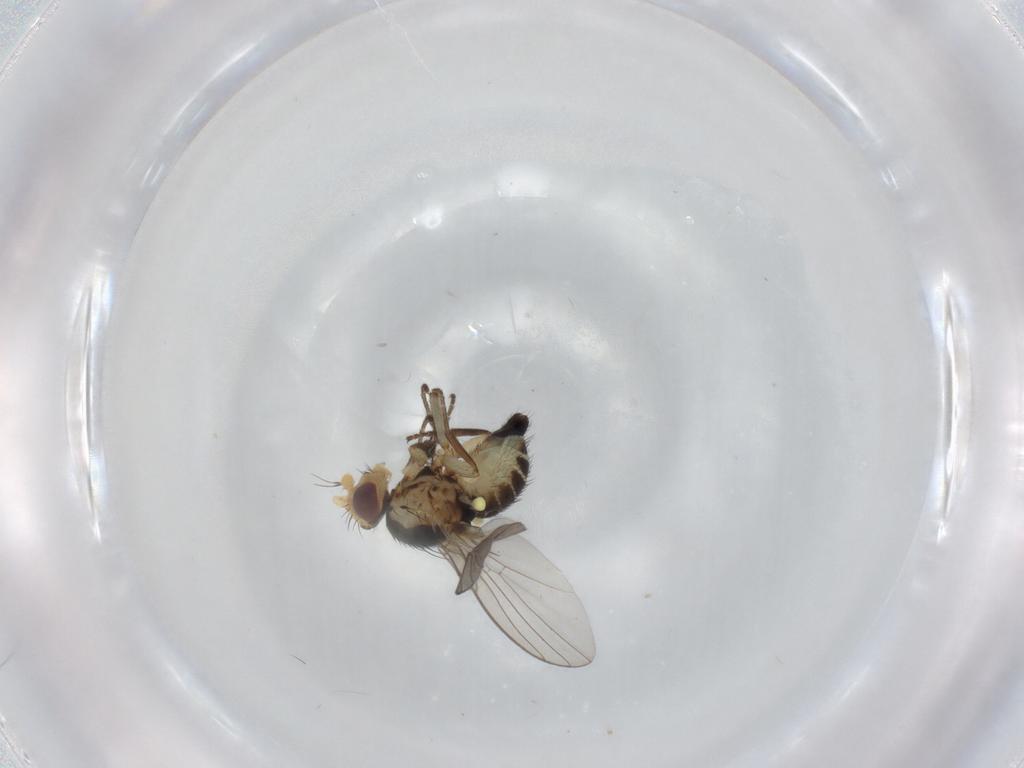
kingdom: Animalia
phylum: Arthropoda
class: Insecta
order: Diptera
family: Agromyzidae
